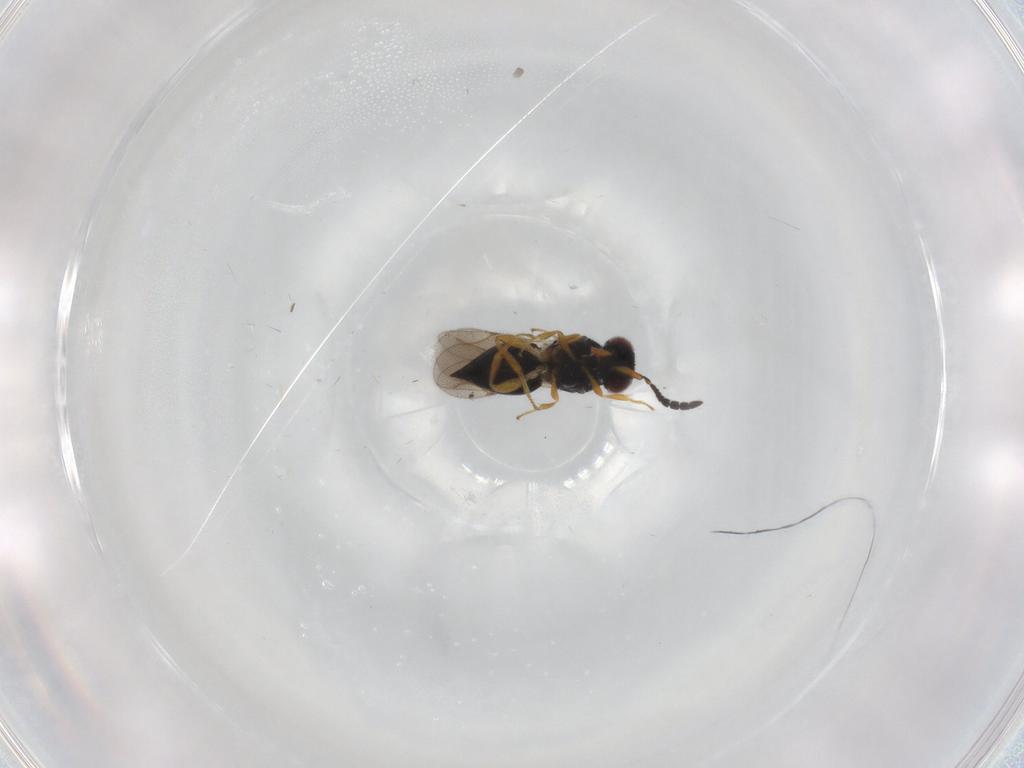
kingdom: Animalia
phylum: Arthropoda
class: Insecta
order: Hymenoptera
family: Ceraphronidae
